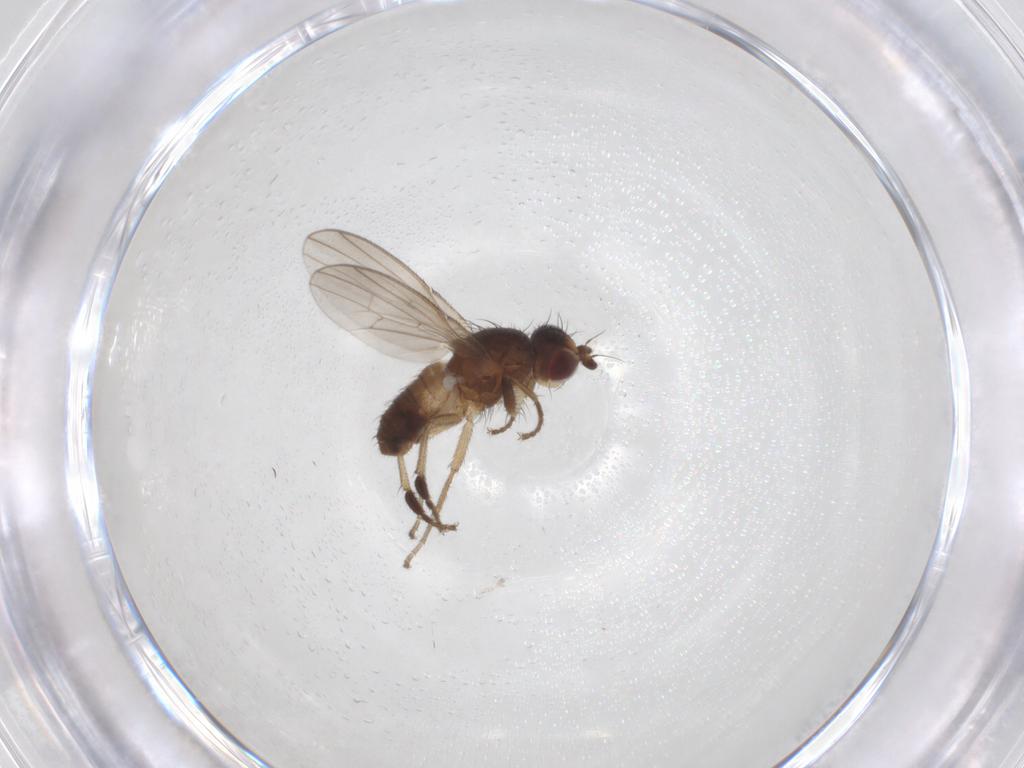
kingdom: Animalia
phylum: Arthropoda
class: Insecta
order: Diptera
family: Heleomyzidae
